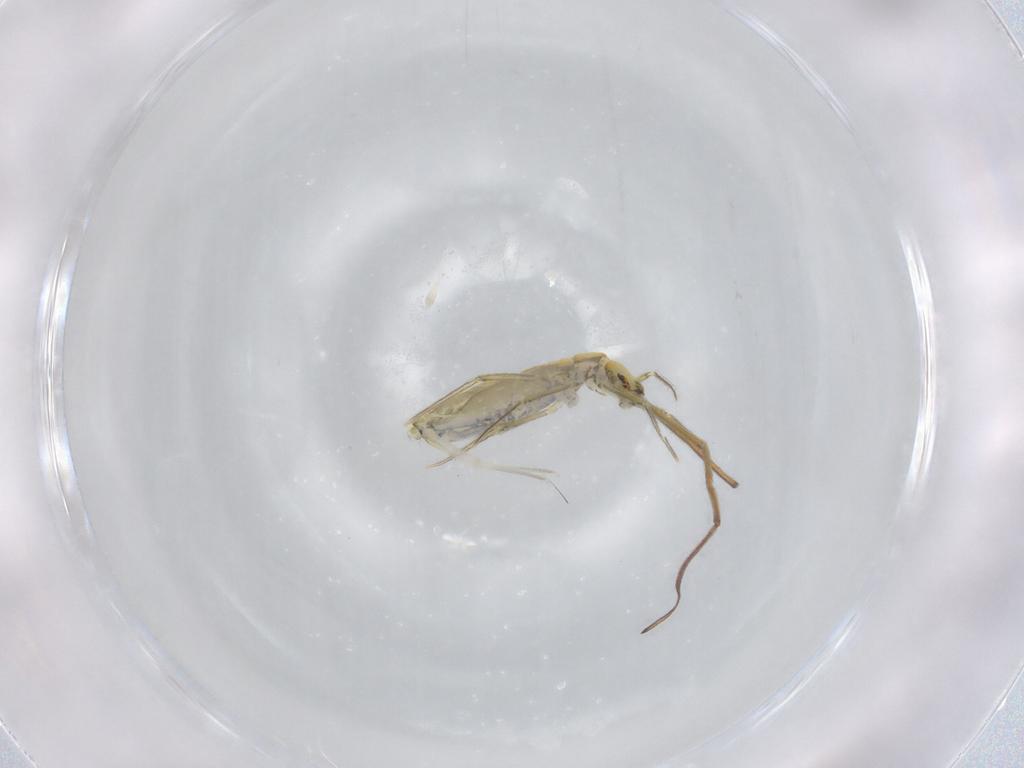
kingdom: Animalia
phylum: Arthropoda
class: Collembola
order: Entomobryomorpha
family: Entomobryidae
